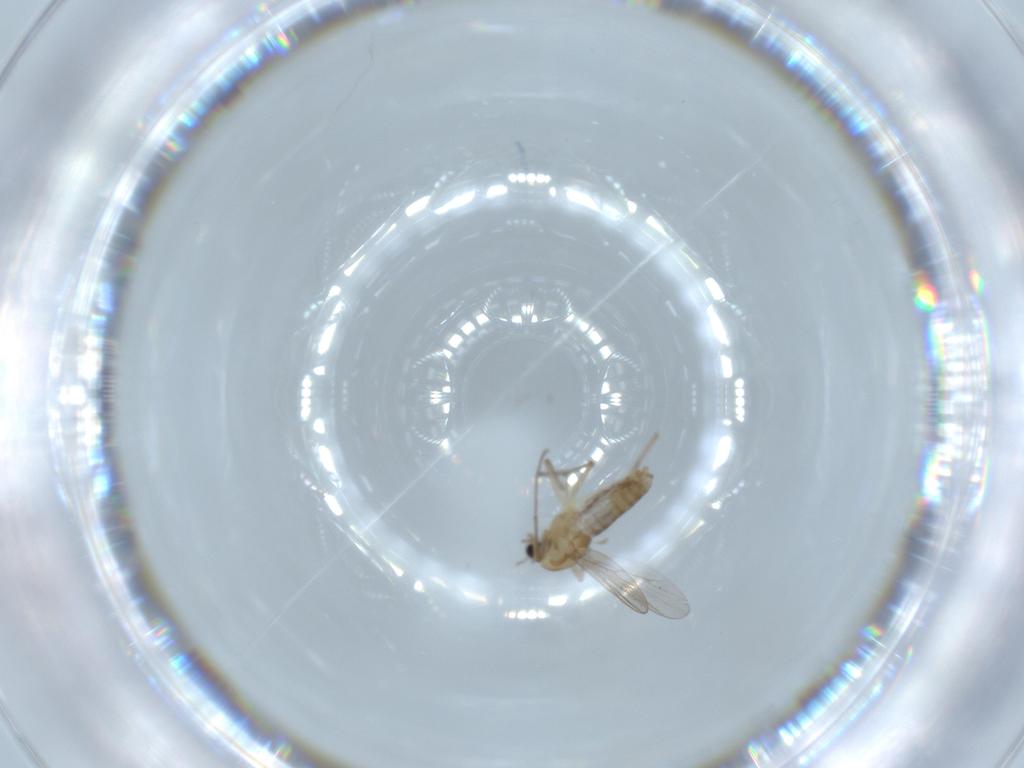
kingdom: Animalia
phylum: Arthropoda
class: Insecta
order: Diptera
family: Chironomidae
